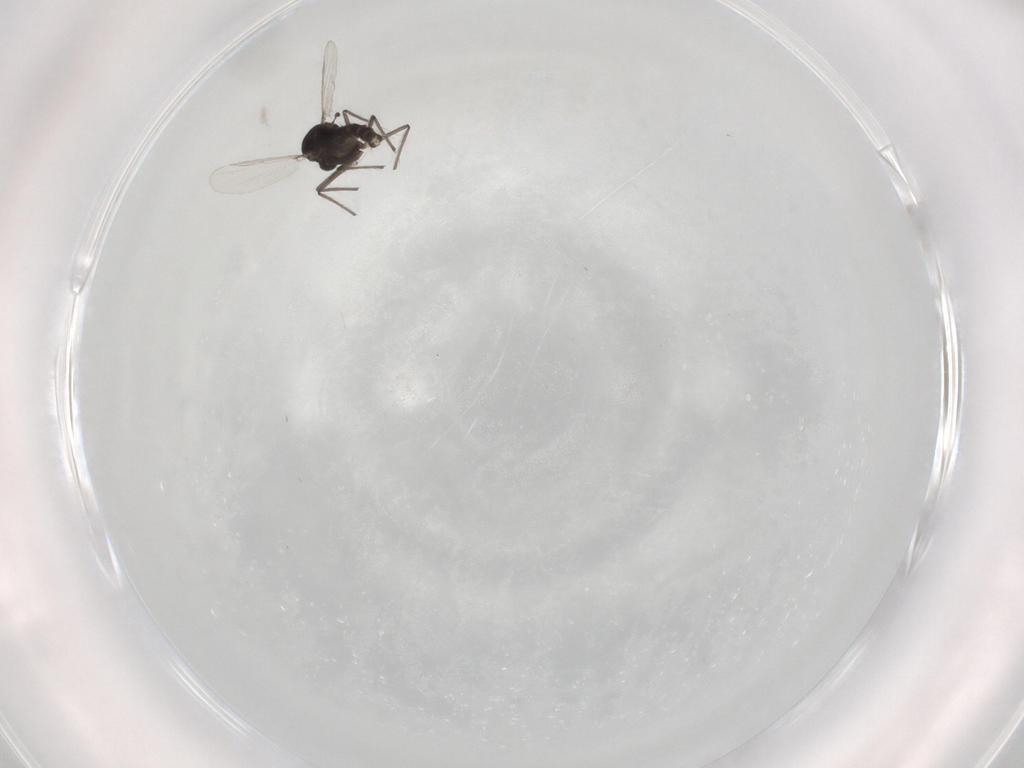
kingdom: Animalia
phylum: Arthropoda
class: Insecta
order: Diptera
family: Chironomidae
